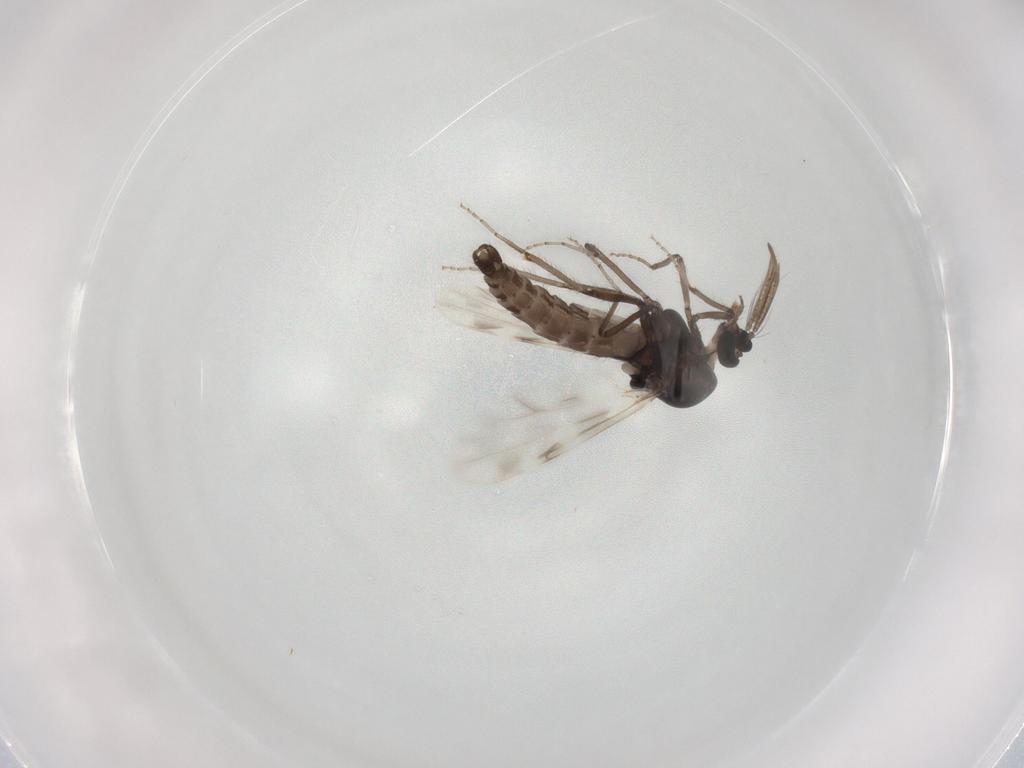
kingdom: Animalia
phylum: Arthropoda
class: Insecta
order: Diptera
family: Ceratopogonidae
